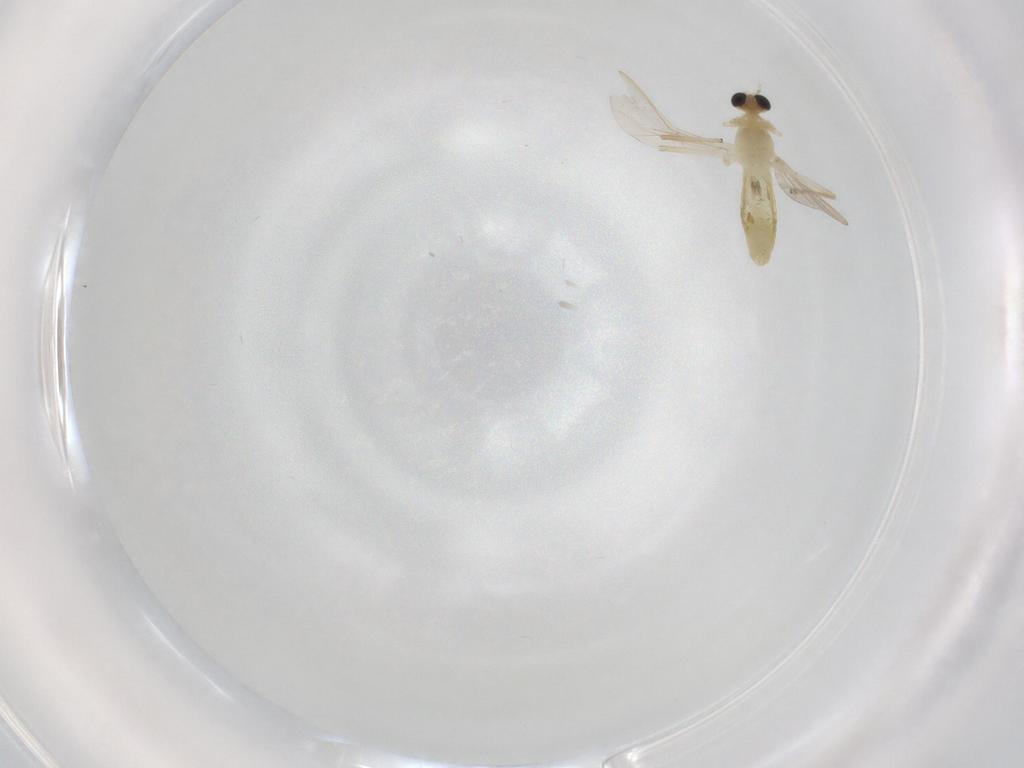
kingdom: Animalia
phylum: Arthropoda
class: Insecta
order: Diptera
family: Chironomidae
